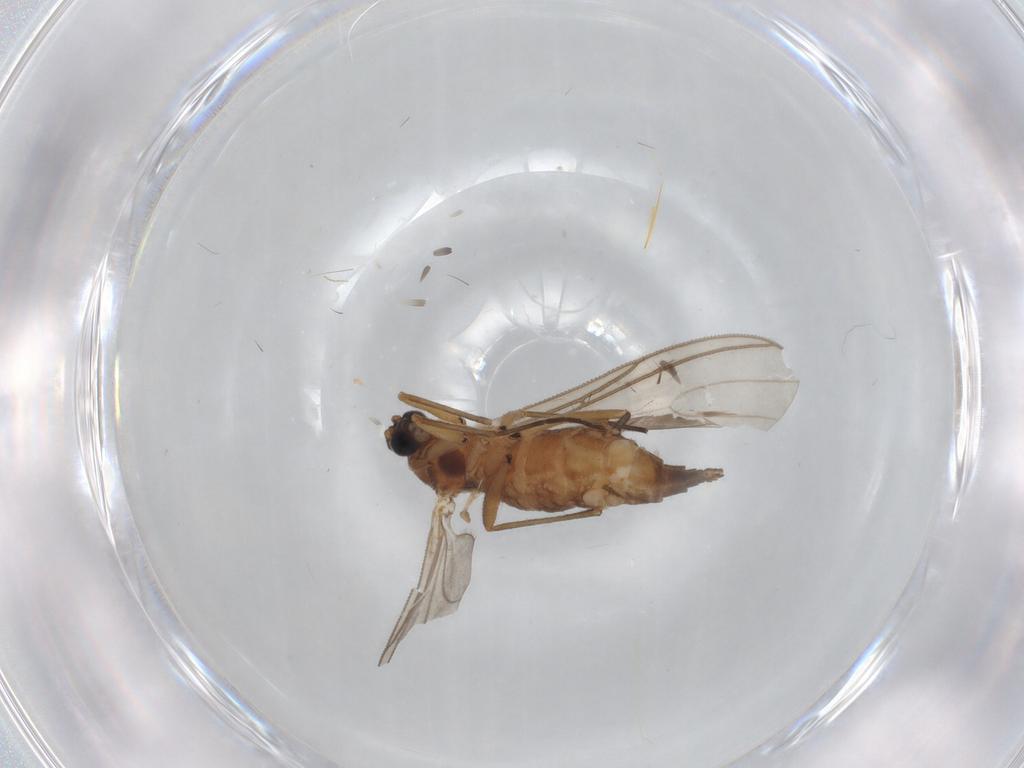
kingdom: Animalia
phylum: Arthropoda
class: Insecta
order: Diptera
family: Sciaridae
